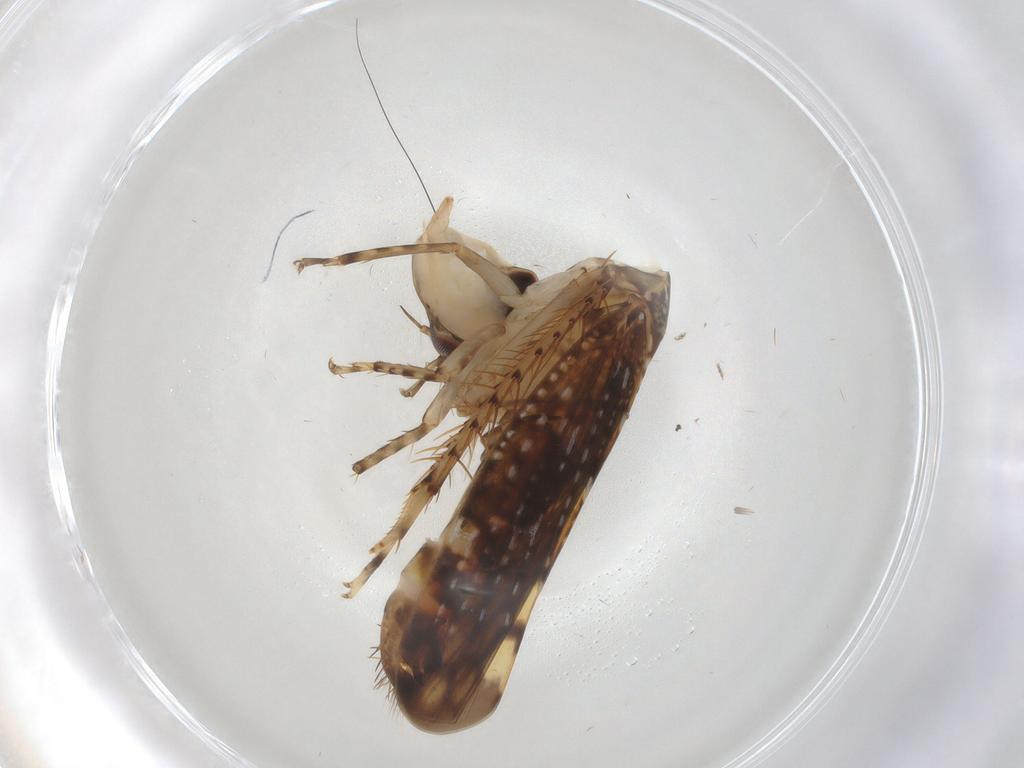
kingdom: Animalia
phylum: Arthropoda
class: Insecta
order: Hemiptera
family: Cicadellidae
